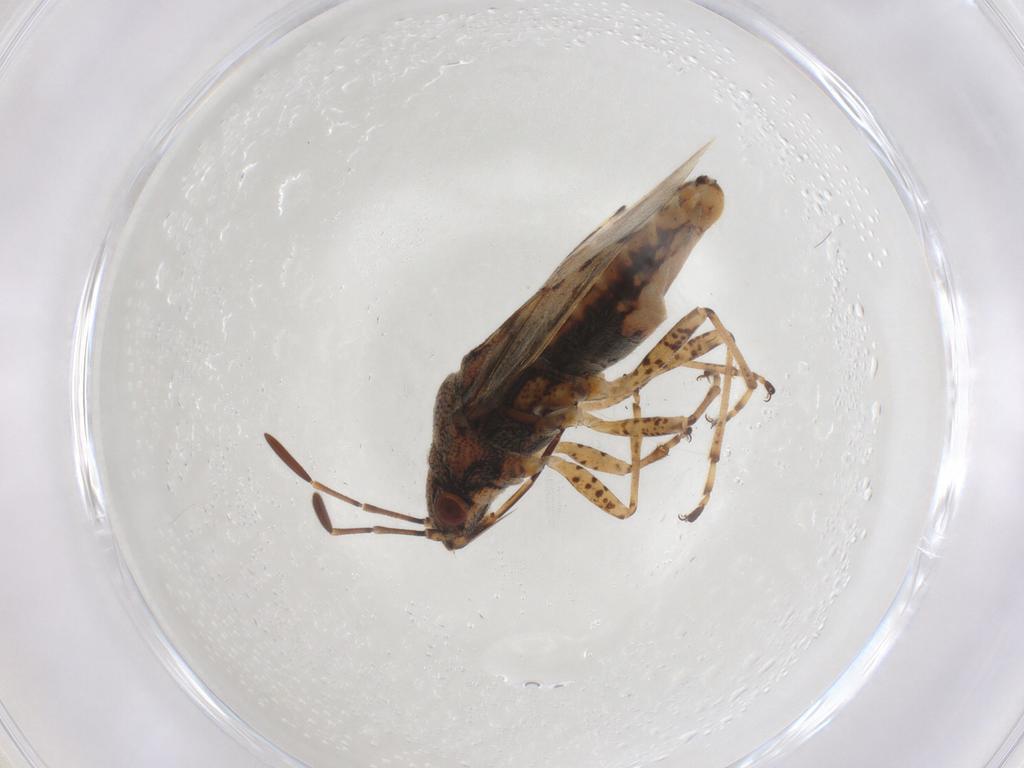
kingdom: Animalia
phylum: Arthropoda
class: Insecta
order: Hemiptera
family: Lygaeidae
